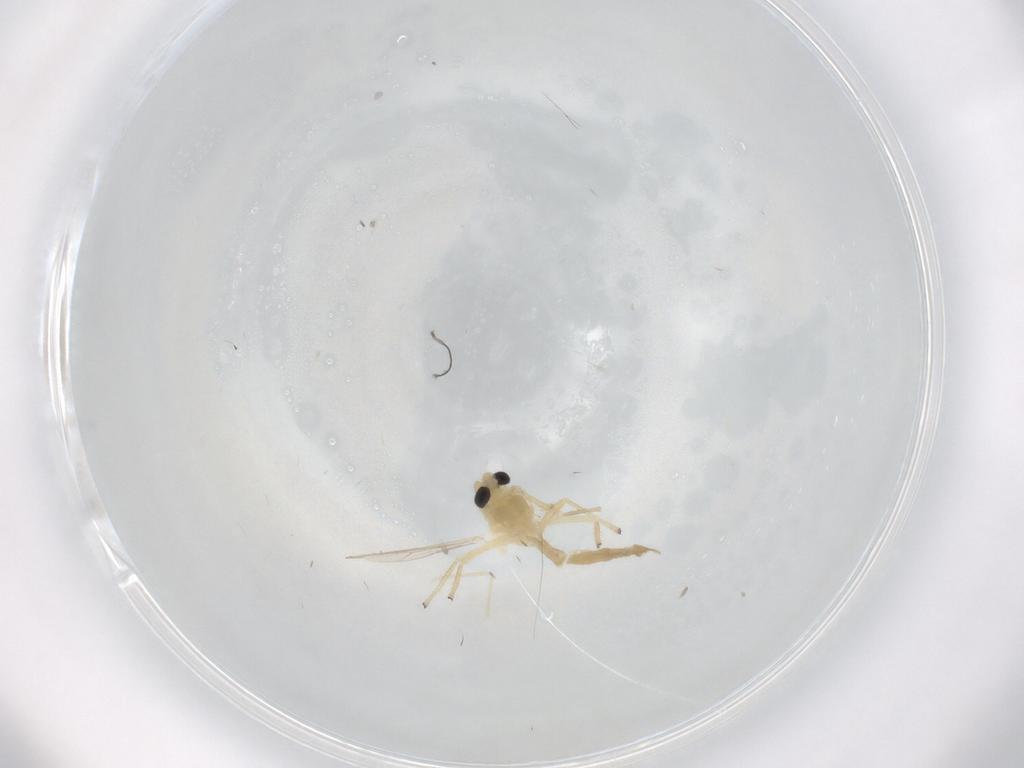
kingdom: Animalia
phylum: Arthropoda
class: Insecta
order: Diptera
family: Chironomidae
